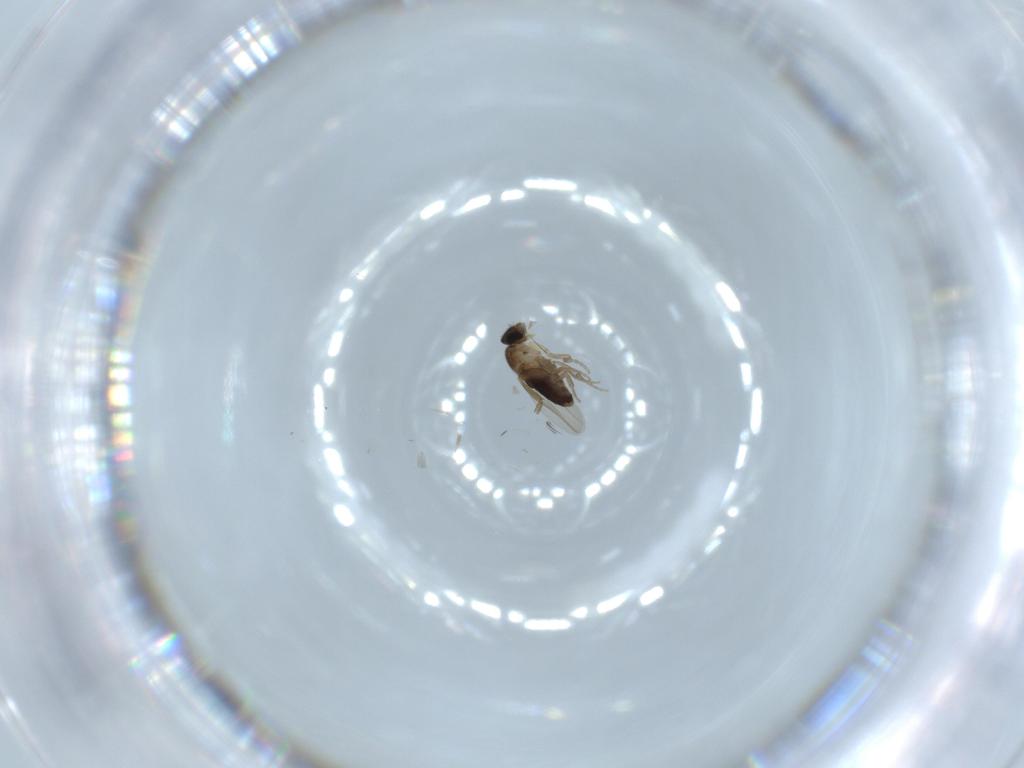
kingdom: Animalia
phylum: Arthropoda
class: Insecta
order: Diptera
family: Phoridae
